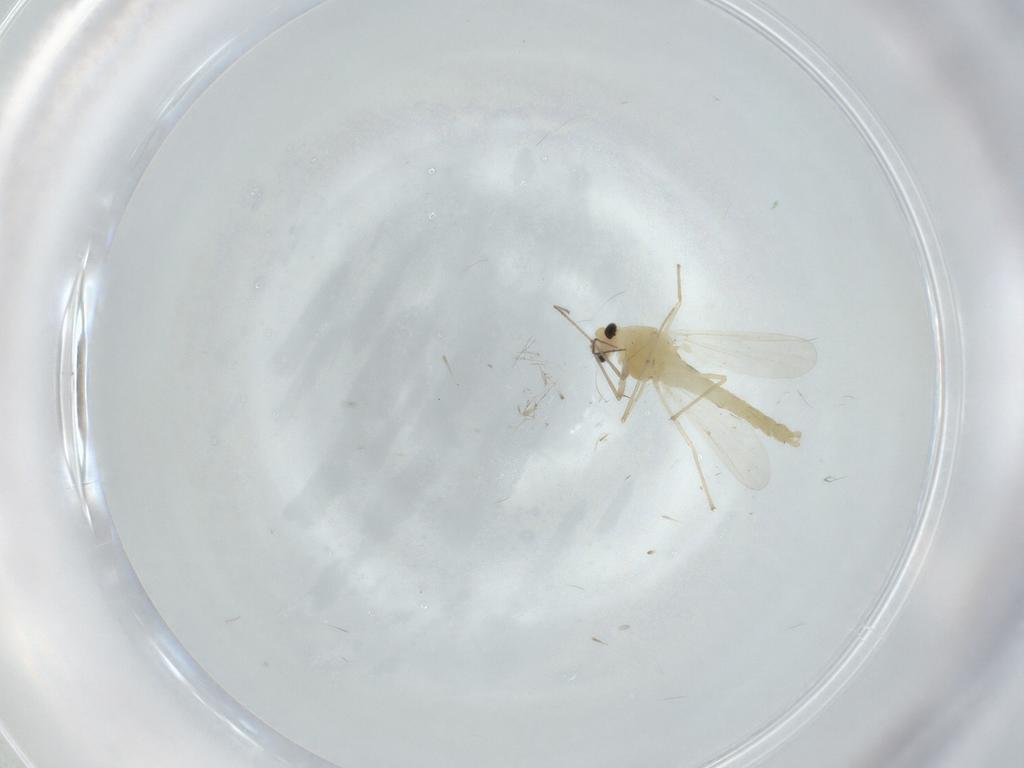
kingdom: Animalia
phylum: Arthropoda
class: Insecta
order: Diptera
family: Chironomidae
